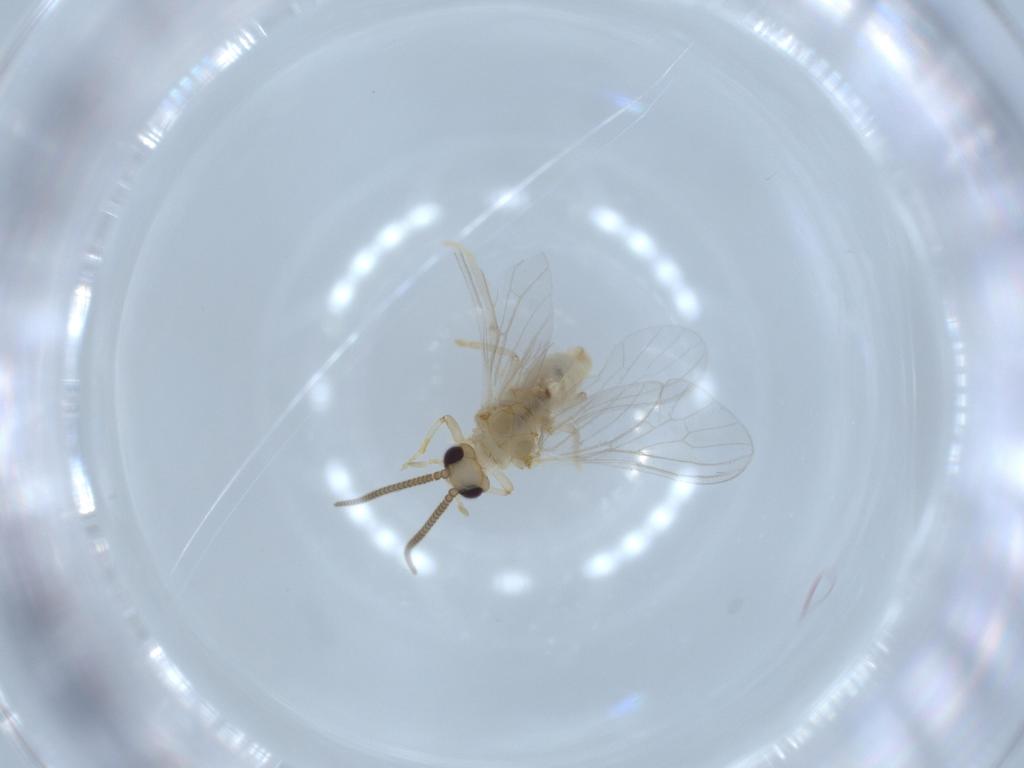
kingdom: Animalia
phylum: Arthropoda
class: Insecta
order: Neuroptera
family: Coniopterygidae
